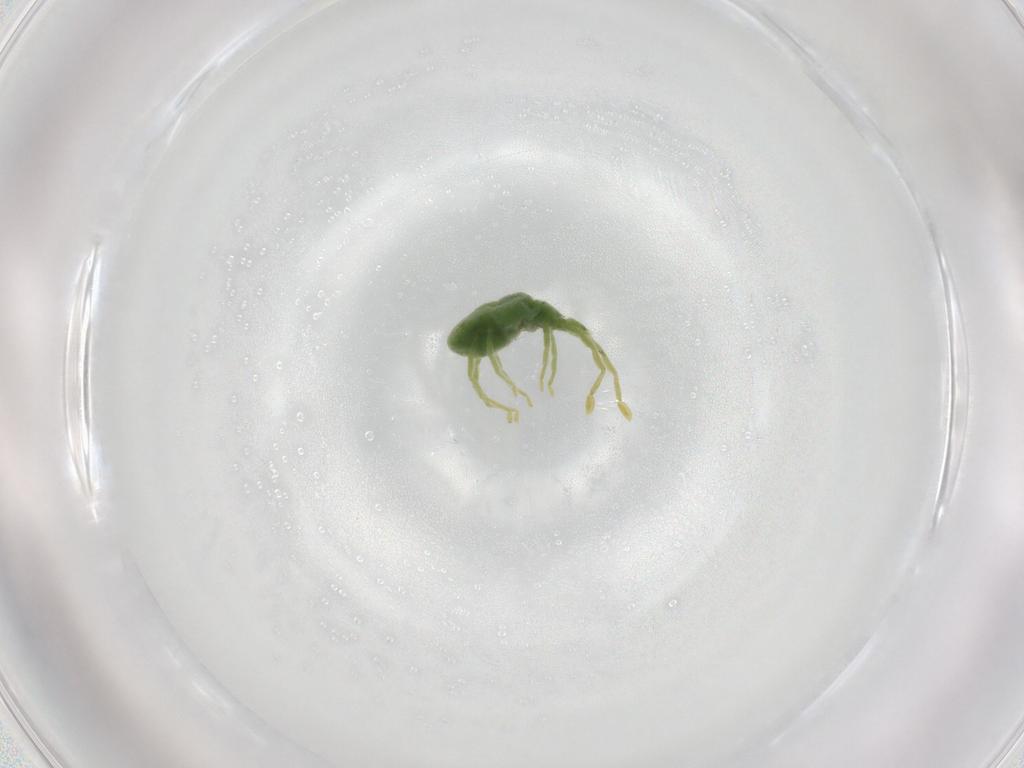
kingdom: Animalia
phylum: Arthropoda
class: Arachnida
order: Trombidiformes
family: Erythraeidae
